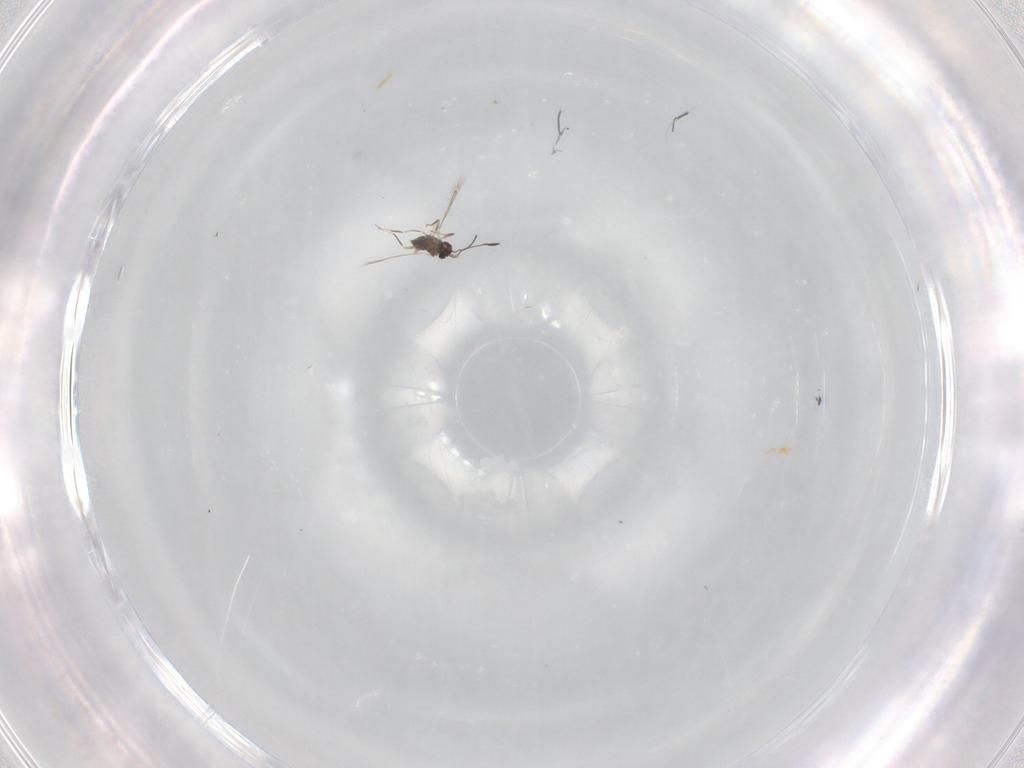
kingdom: Animalia
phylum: Arthropoda
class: Insecta
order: Hymenoptera
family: Mymaridae
